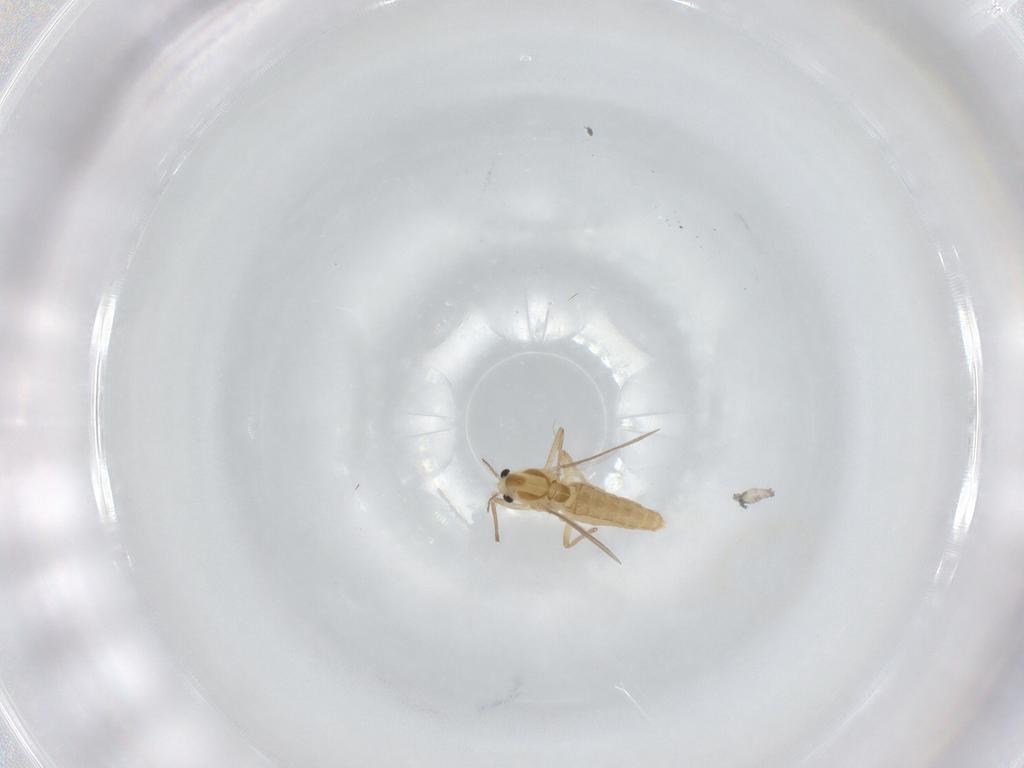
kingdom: Animalia
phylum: Arthropoda
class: Insecta
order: Diptera
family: Chironomidae
